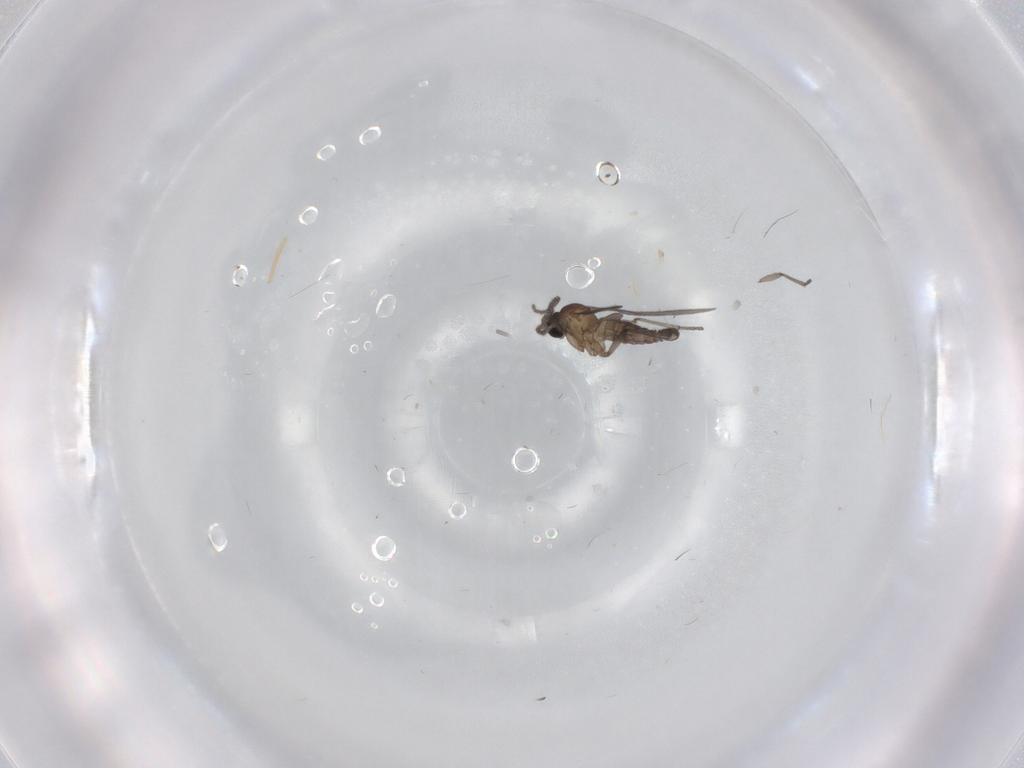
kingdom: Animalia
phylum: Arthropoda
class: Insecta
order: Diptera
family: Sciaridae
